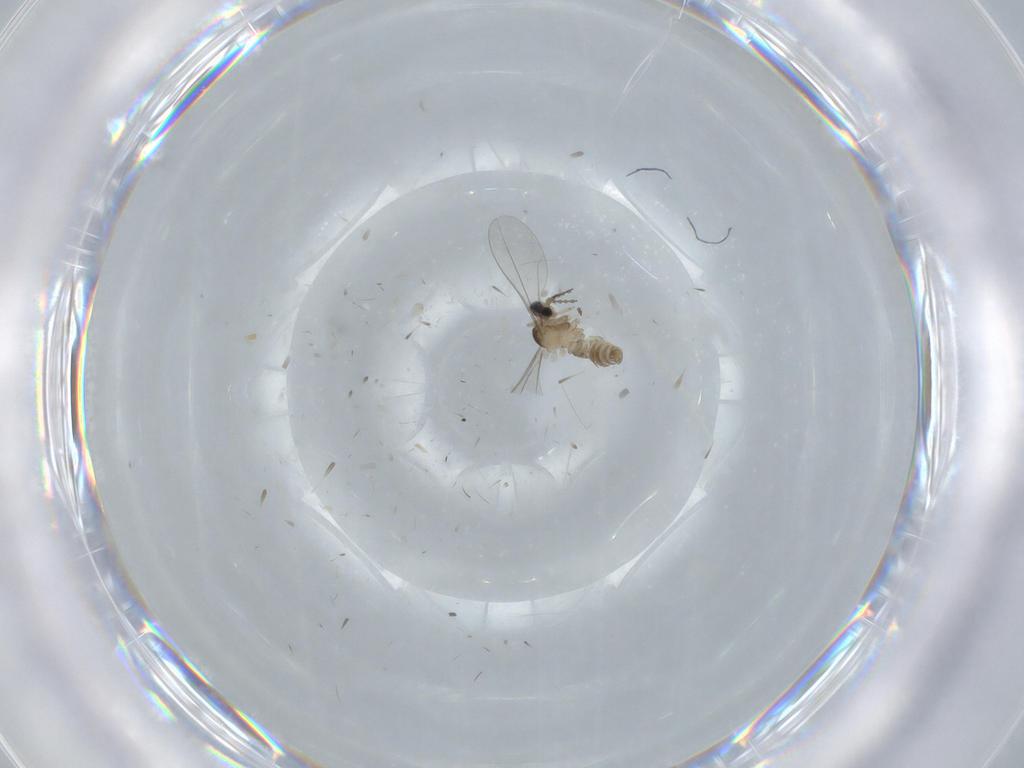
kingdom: Animalia
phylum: Arthropoda
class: Insecta
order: Diptera
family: Cecidomyiidae
